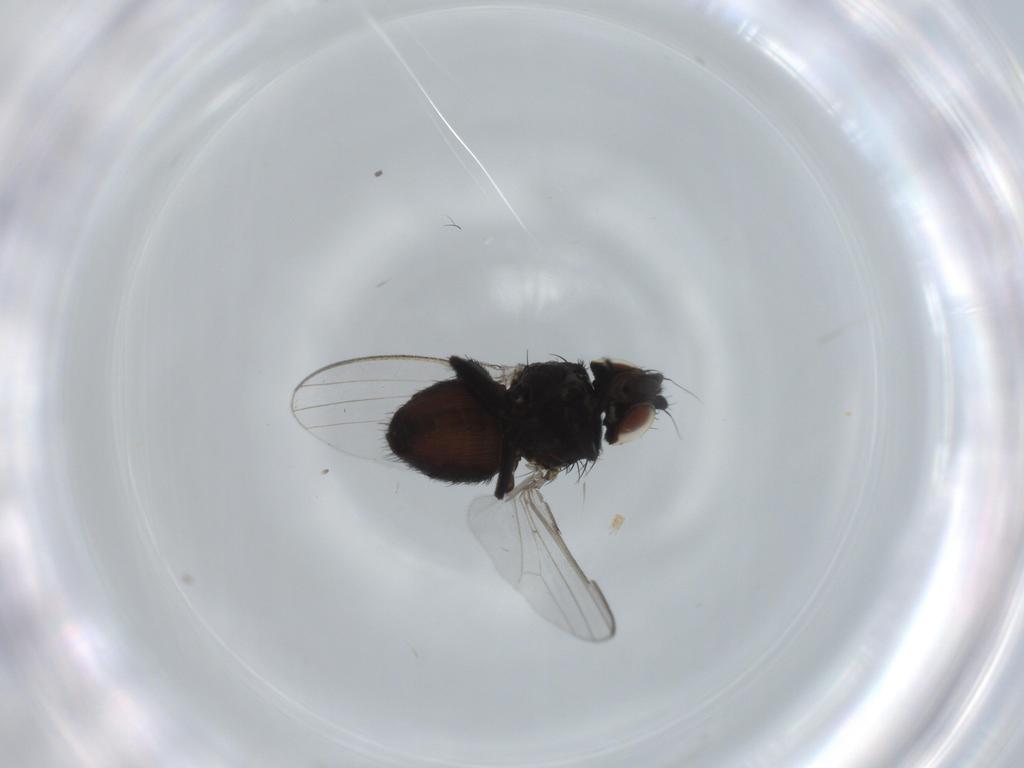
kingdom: Animalia
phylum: Arthropoda
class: Insecta
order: Diptera
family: Milichiidae
